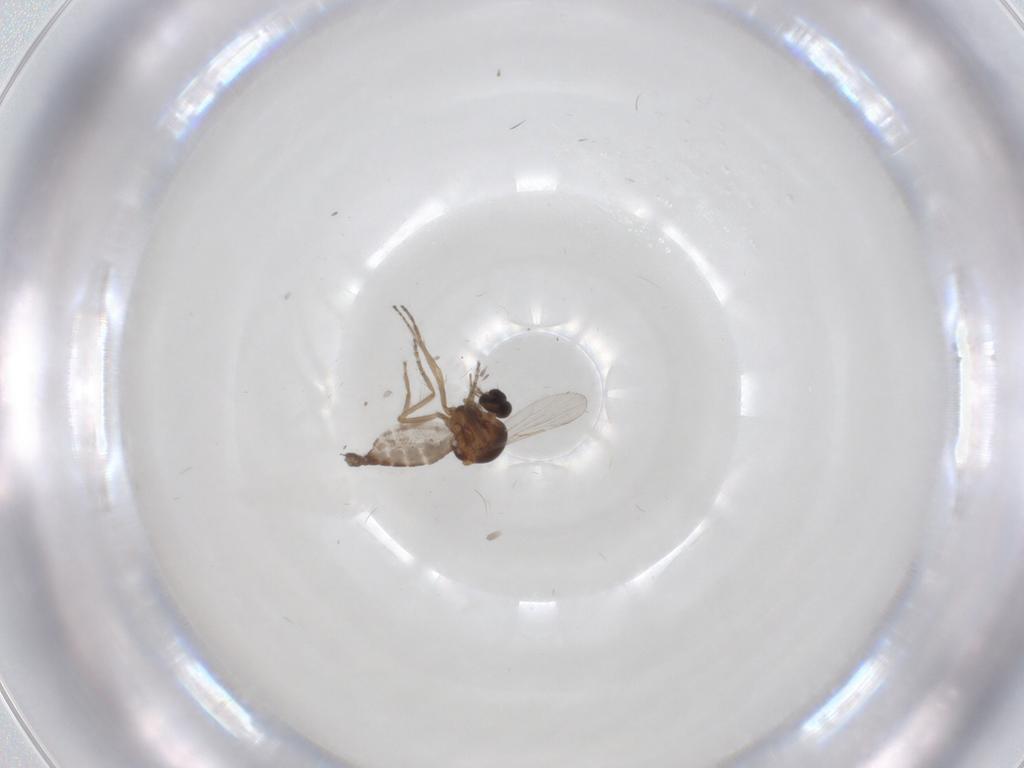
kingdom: Animalia
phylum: Arthropoda
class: Insecta
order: Diptera
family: Ceratopogonidae
